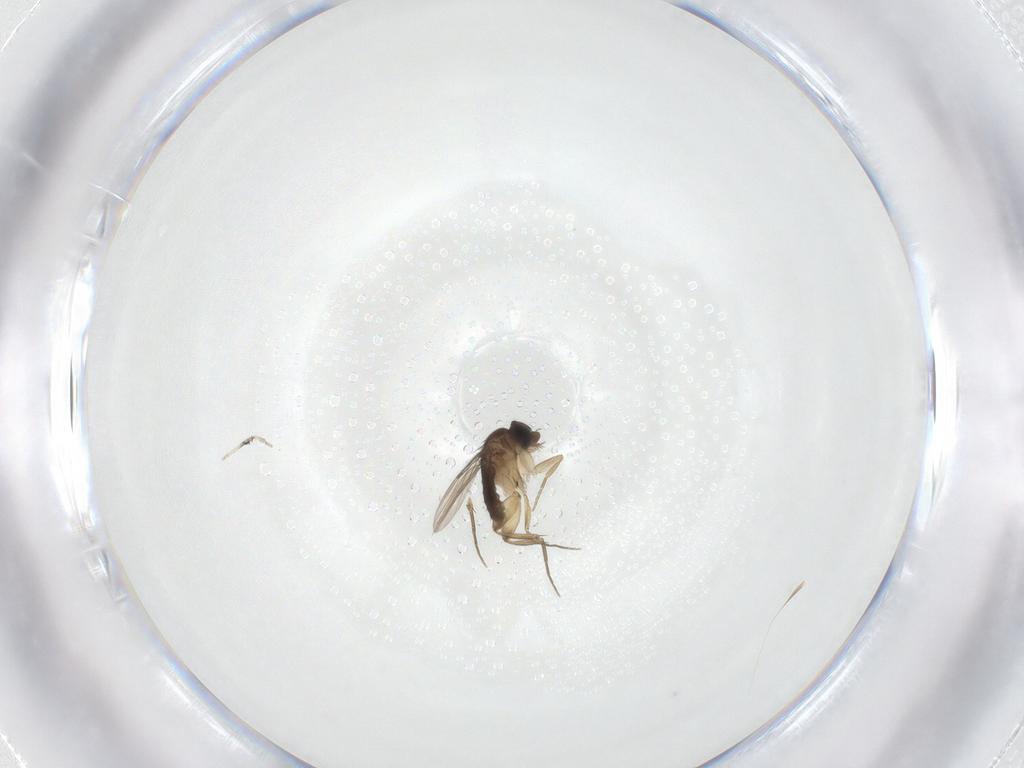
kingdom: Animalia
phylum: Arthropoda
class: Insecta
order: Diptera
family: Phoridae
